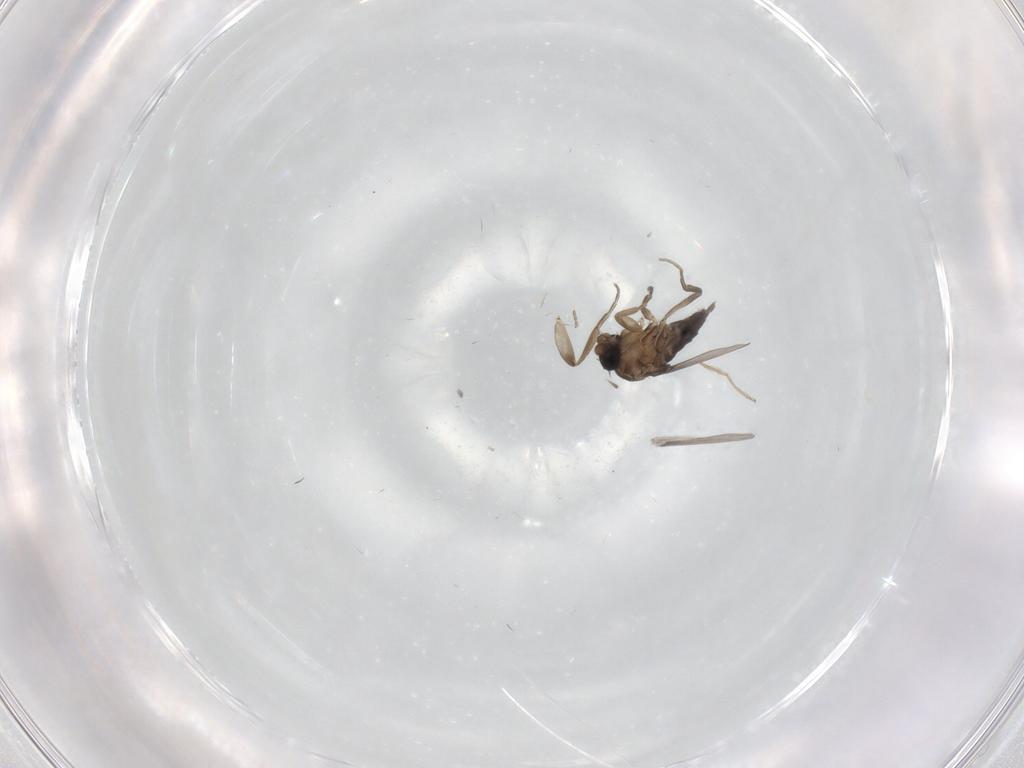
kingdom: Animalia
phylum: Arthropoda
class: Insecta
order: Diptera
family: Phoridae
